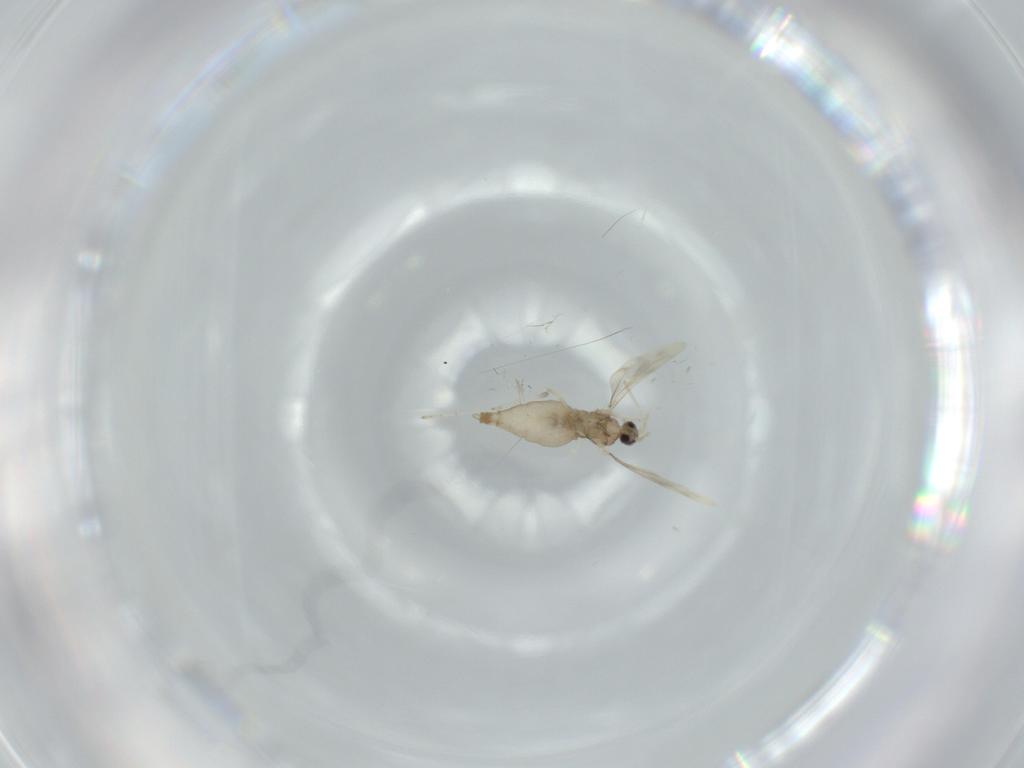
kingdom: Animalia
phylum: Arthropoda
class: Insecta
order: Diptera
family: Cecidomyiidae
